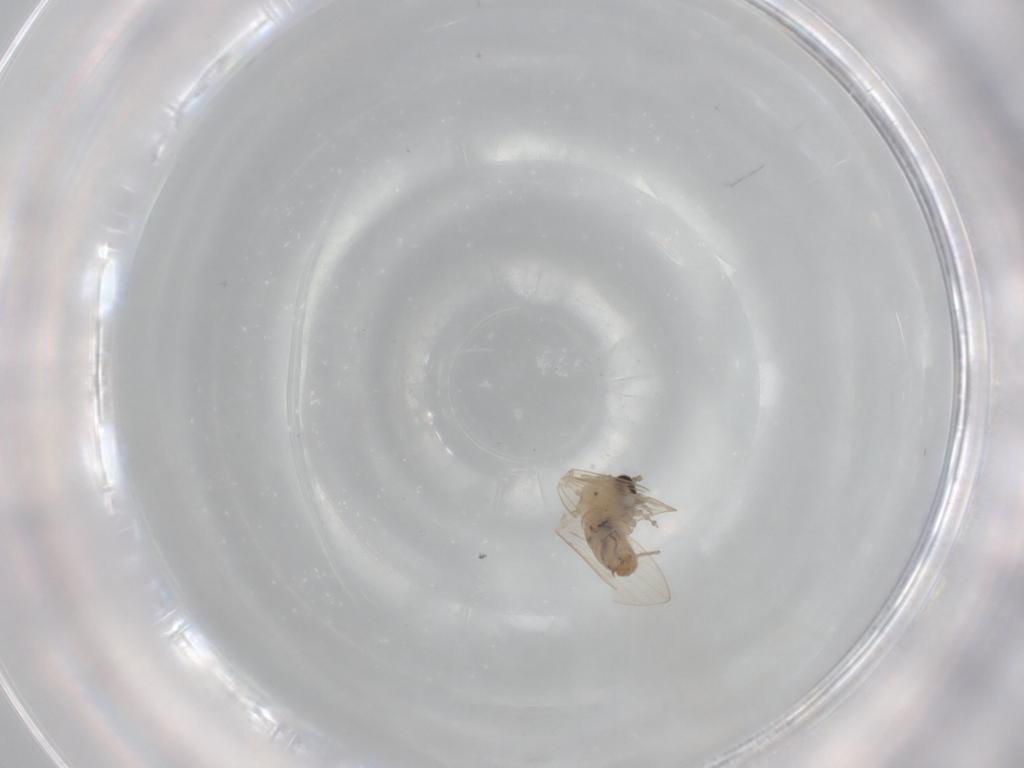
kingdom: Animalia
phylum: Arthropoda
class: Insecta
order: Diptera
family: Psychodidae
